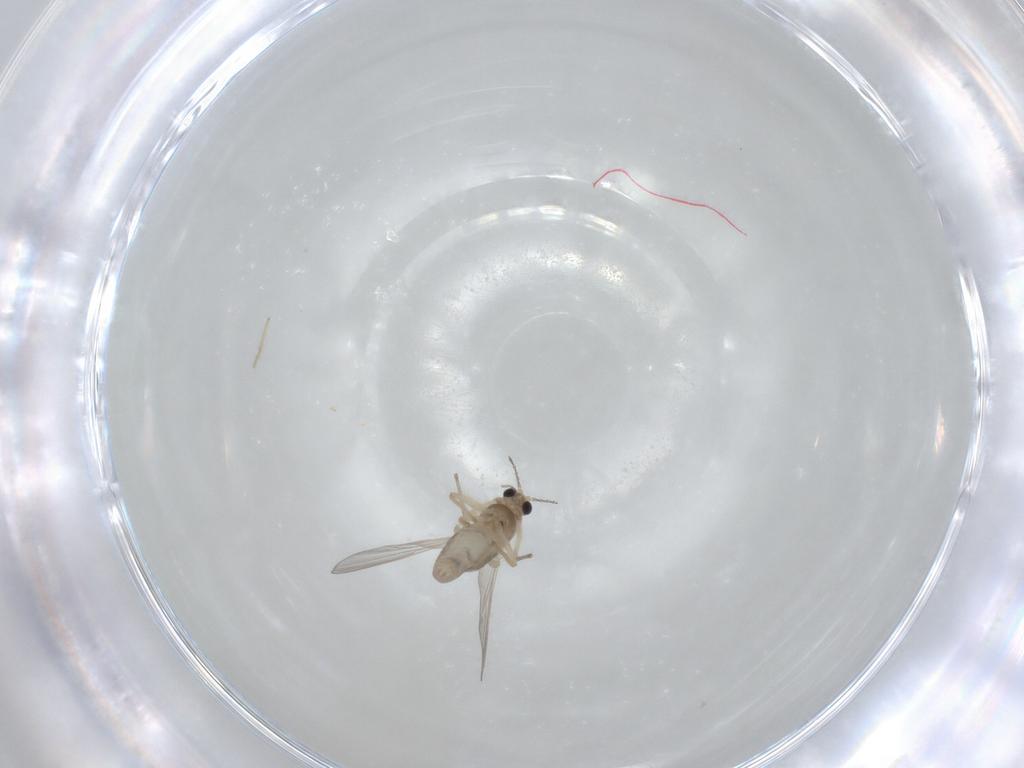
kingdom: Animalia
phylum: Arthropoda
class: Insecta
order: Diptera
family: Chironomidae
